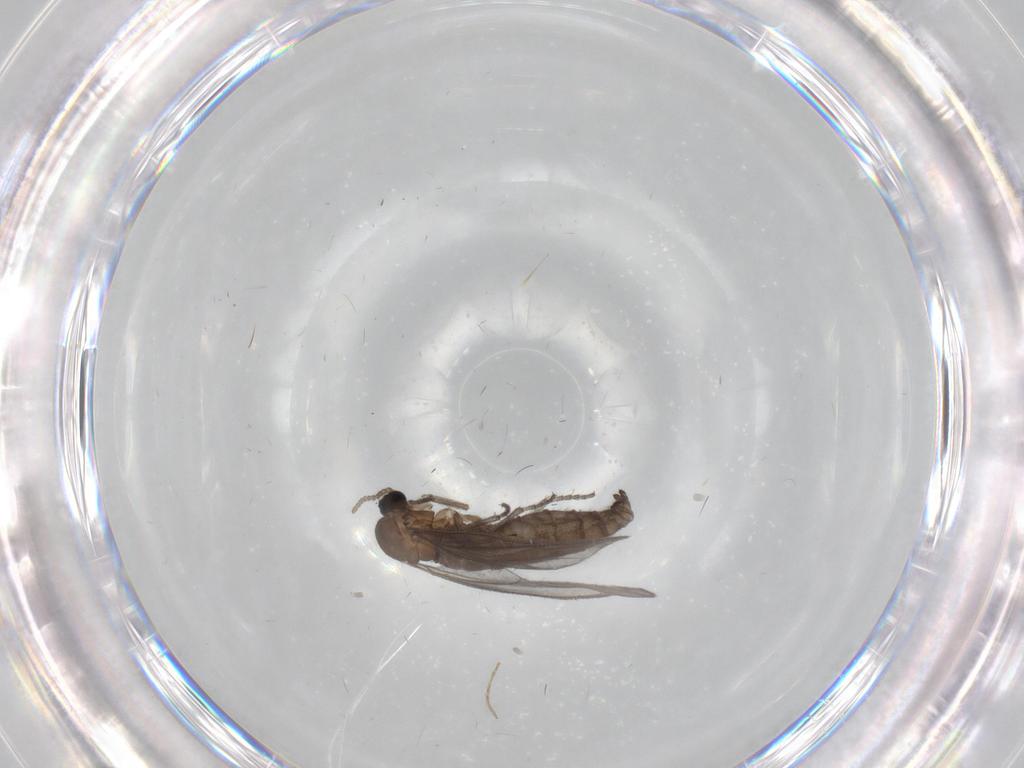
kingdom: Animalia
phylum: Arthropoda
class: Insecta
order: Diptera
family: Sciaridae
